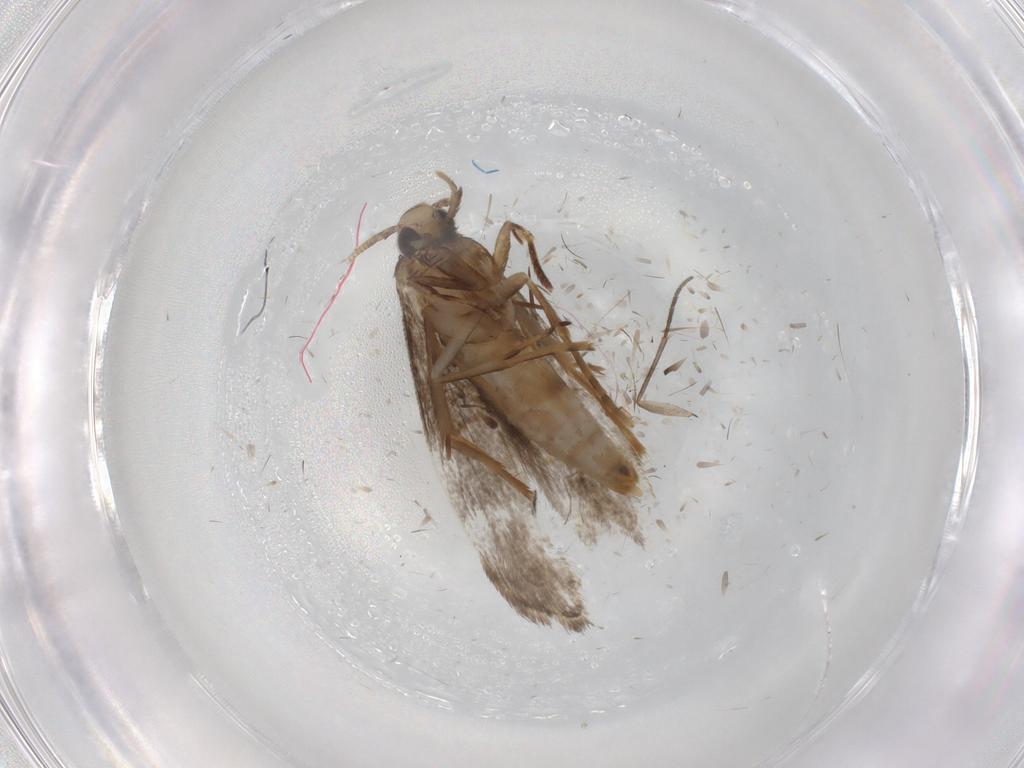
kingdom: Animalia
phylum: Arthropoda
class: Insecta
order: Lepidoptera
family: Tineidae
